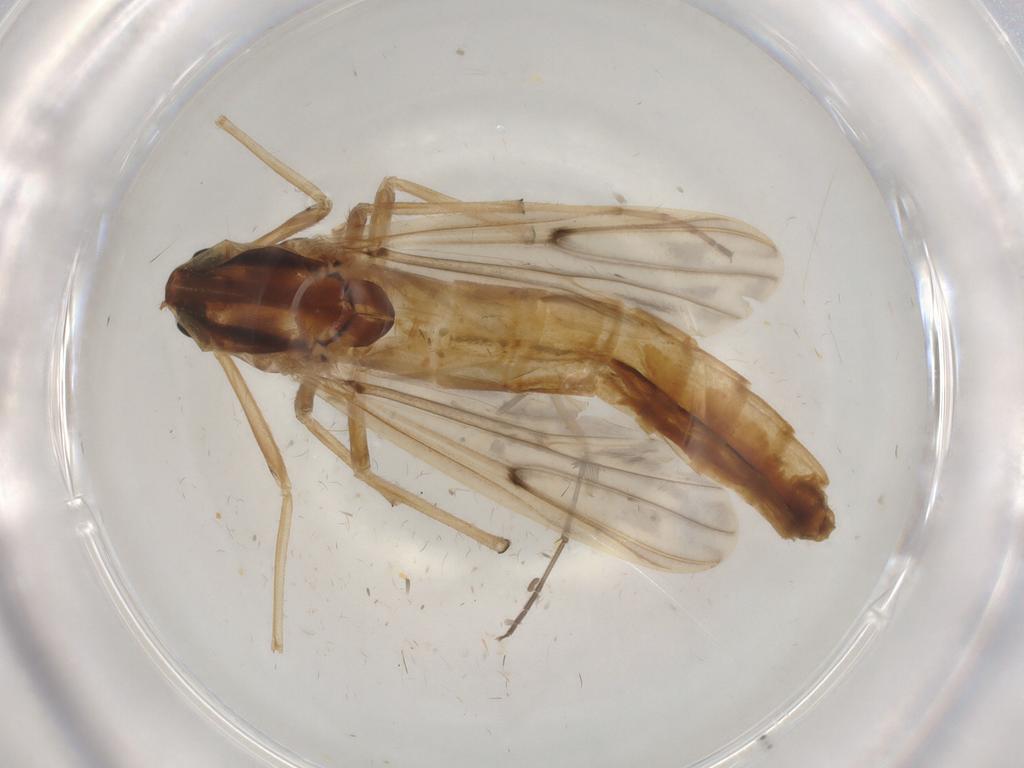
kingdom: Animalia
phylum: Arthropoda
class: Insecta
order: Diptera
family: Chironomidae
